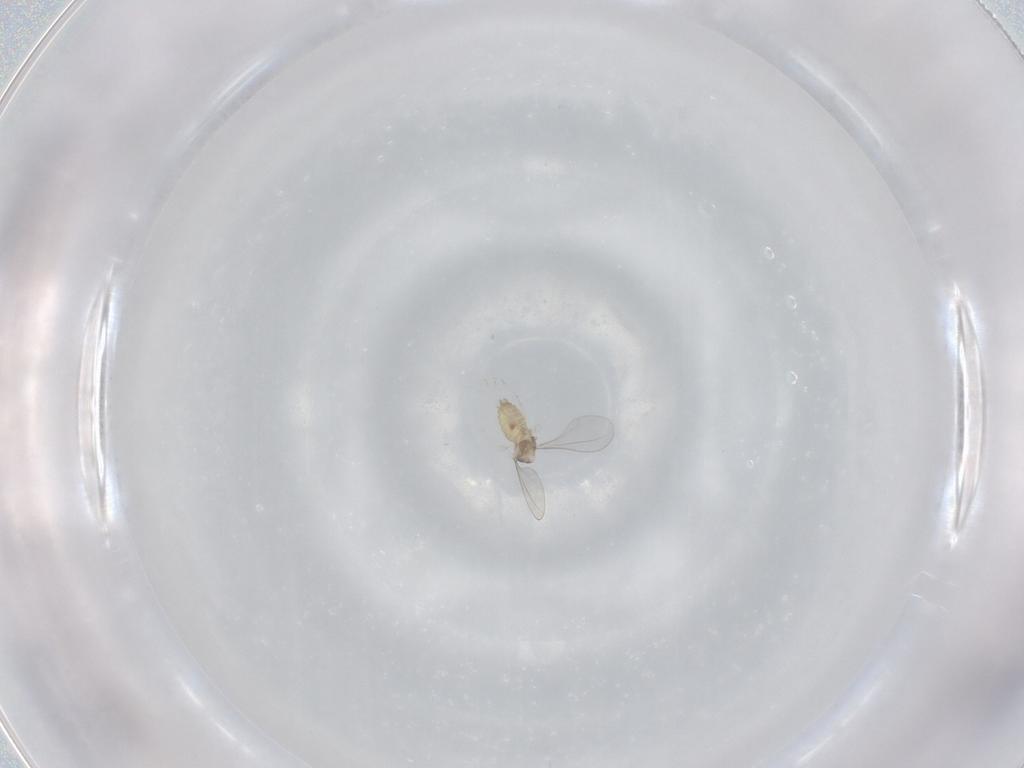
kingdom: Animalia
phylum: Arthropoda
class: Insecta
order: Diptera
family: Cecidomyiidae
